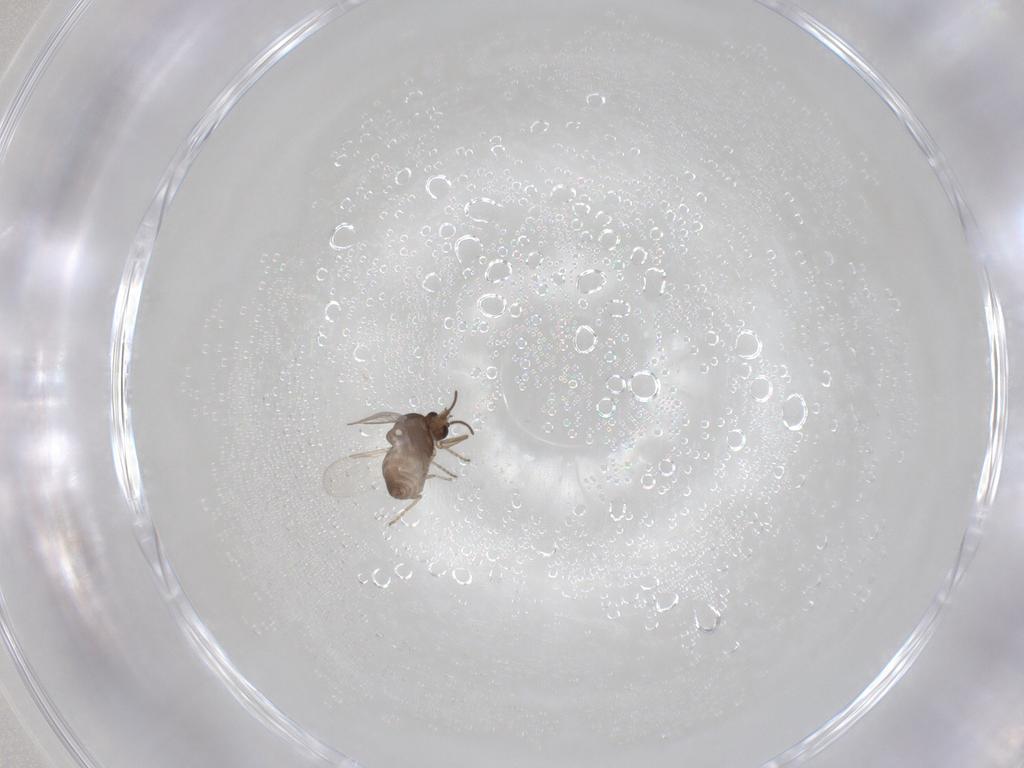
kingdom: Animalia
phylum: Arthropoda
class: Insecta
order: Diptera
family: Ceratopogonidae
